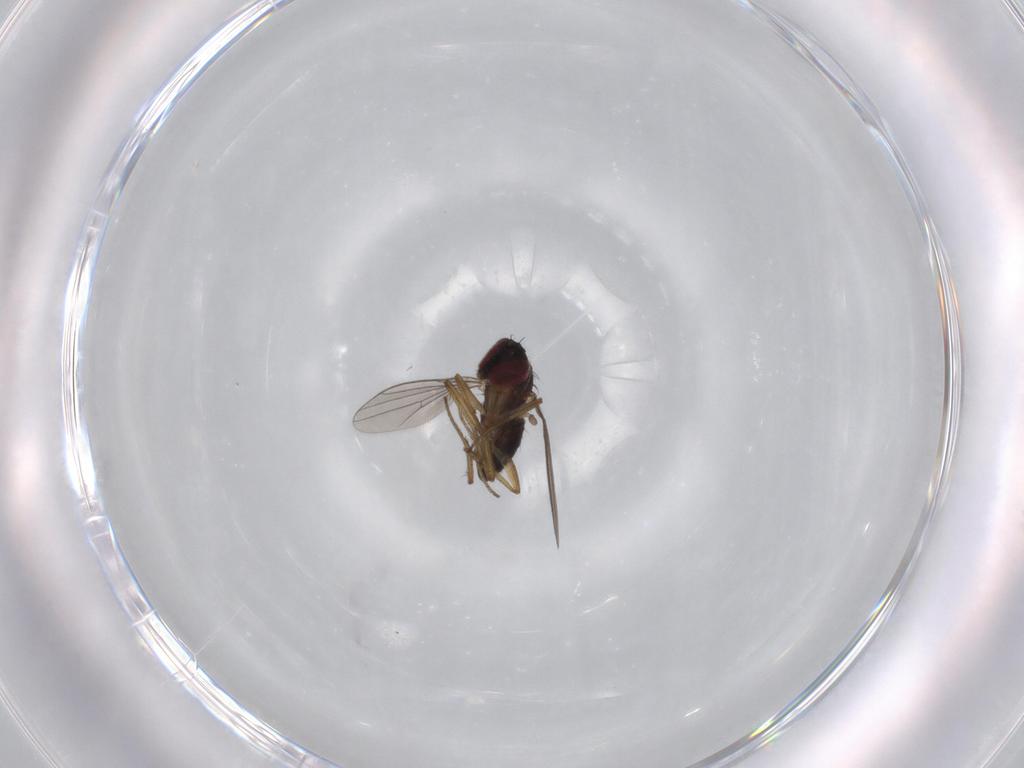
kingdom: Animalia
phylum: Arthropoda
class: Insecta
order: Diptera
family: Dolichopodidae
